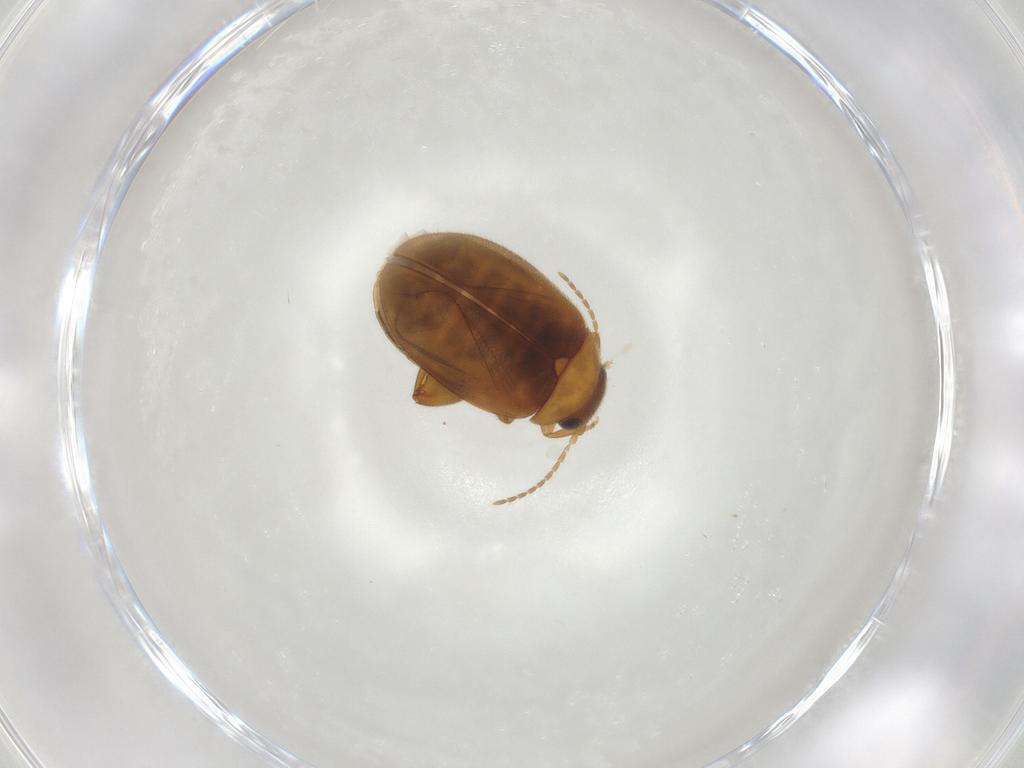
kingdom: Animalia
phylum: Arthropoda
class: Insecta
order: Coleoptera
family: Scirtidae
